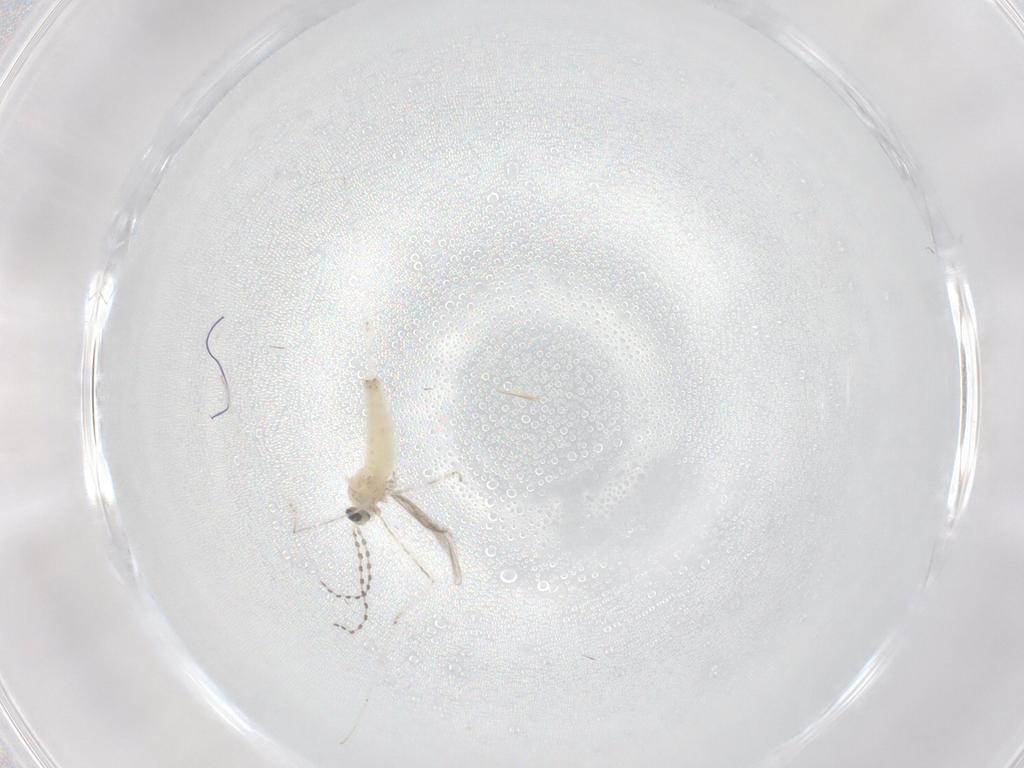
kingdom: Animalia
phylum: Arthropoda
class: Insecta
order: Diptera
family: Cecidomyiidae
